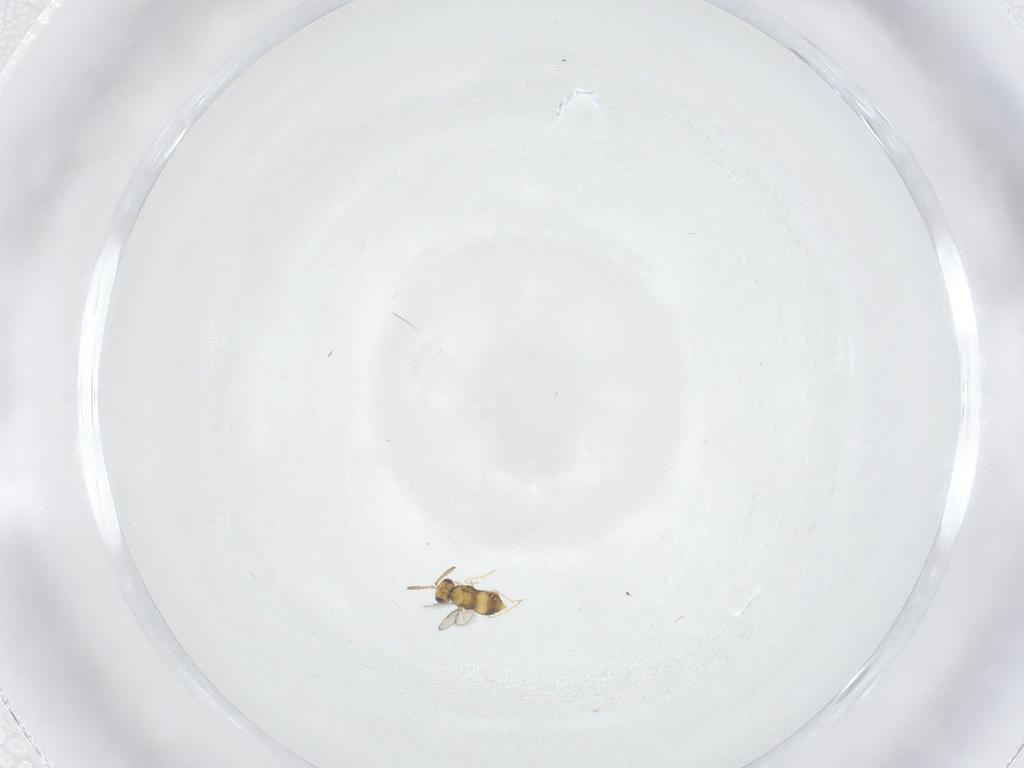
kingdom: Animalia
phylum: Arthropoda
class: Insecta
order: Hymenoptera
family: Aphelinidae
